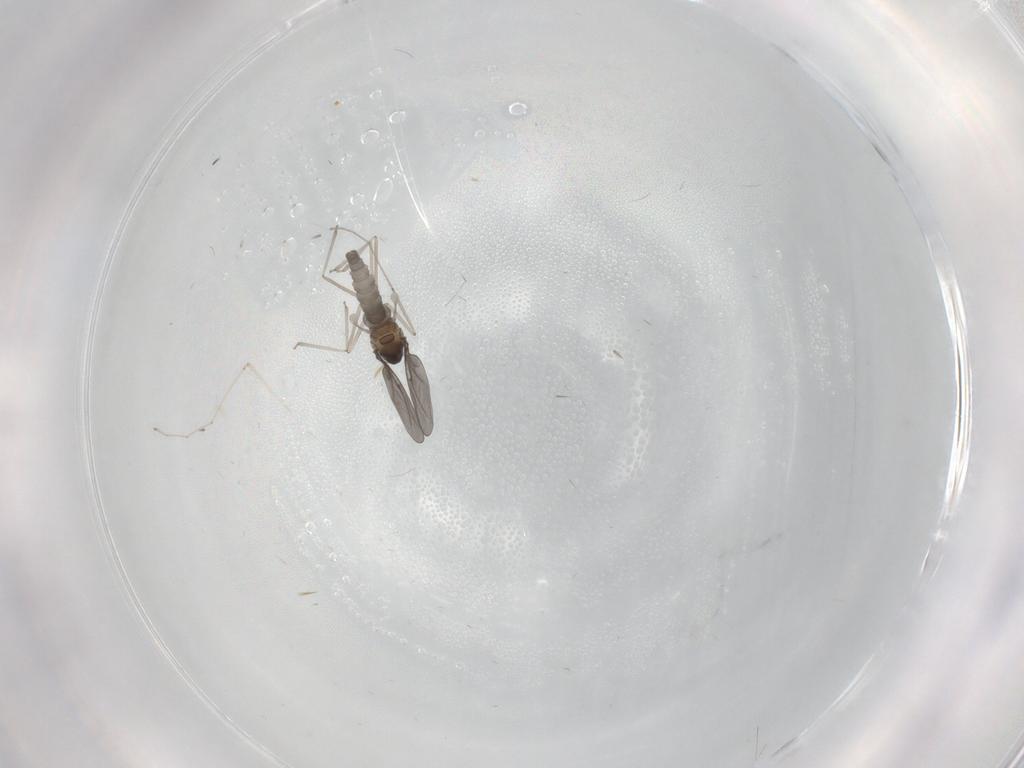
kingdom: Animalia
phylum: Arthropoda
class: Insecta
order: Diptera
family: Cecidomyiidae
